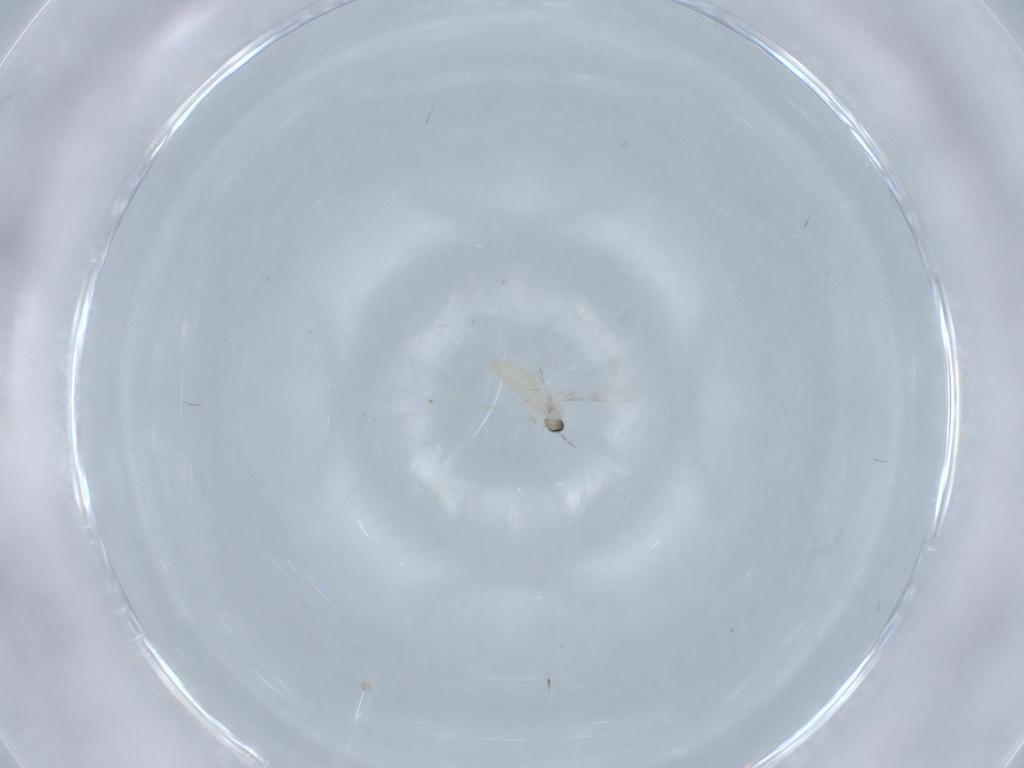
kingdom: Animalia
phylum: Arthropoda
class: Insecta
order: Diptera
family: Cecidomyiidae
